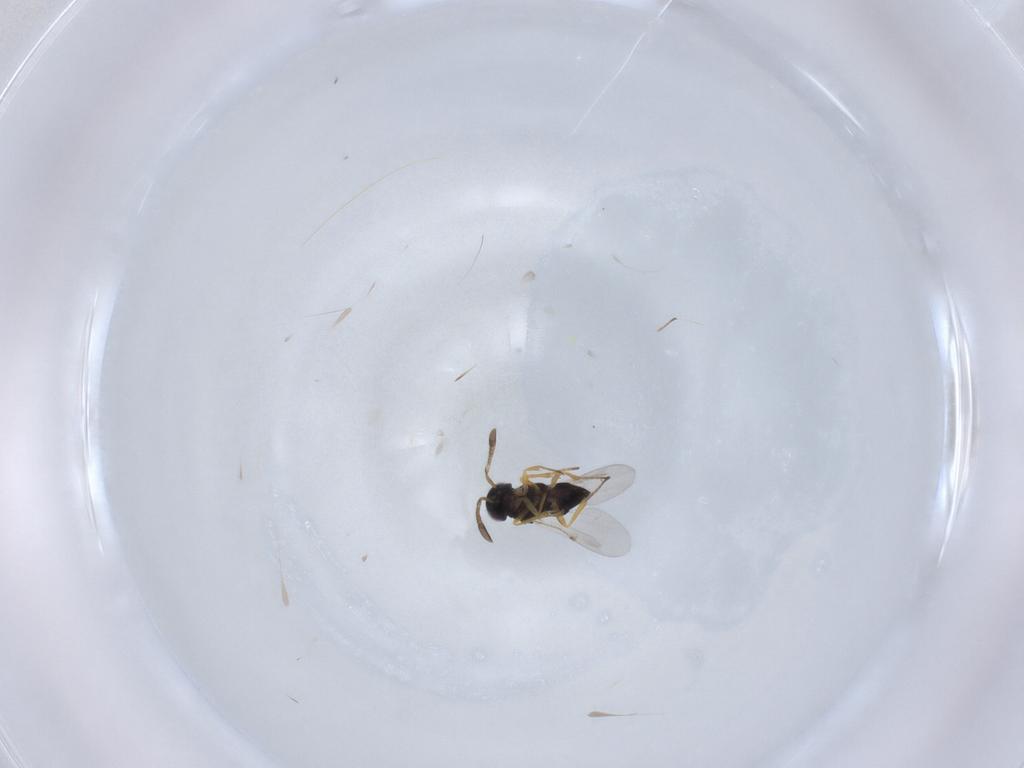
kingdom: Animalia
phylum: Arthropoda
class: Insecta
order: Hymenoptera
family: Encyrtidae
